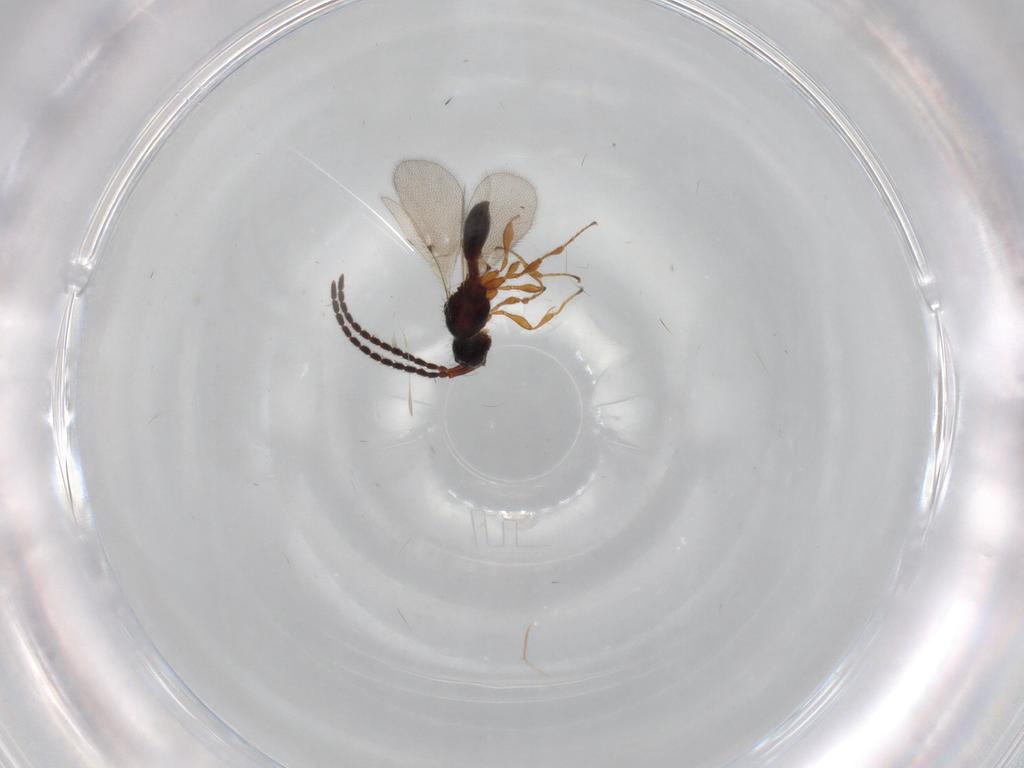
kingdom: Animalia
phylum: Arthropoda
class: Insecta
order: Hymenoptera
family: Diapriidae
